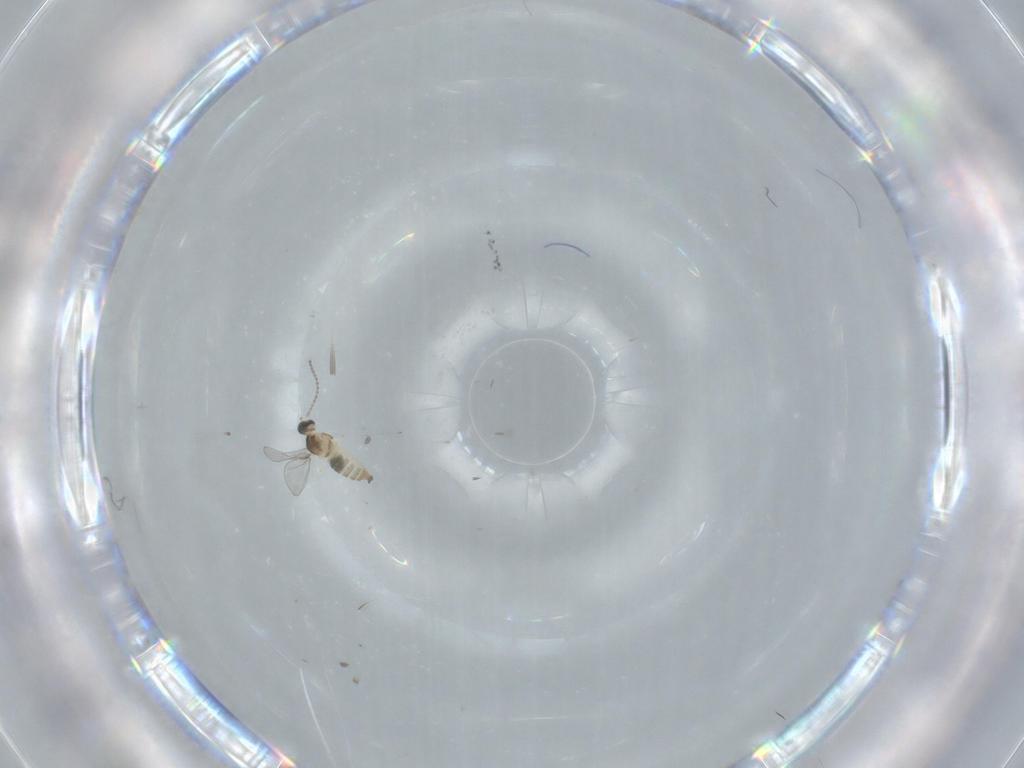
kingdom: Animalia
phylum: Arthropoda
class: Insecta
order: Diptera
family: Cecidomyiidae
